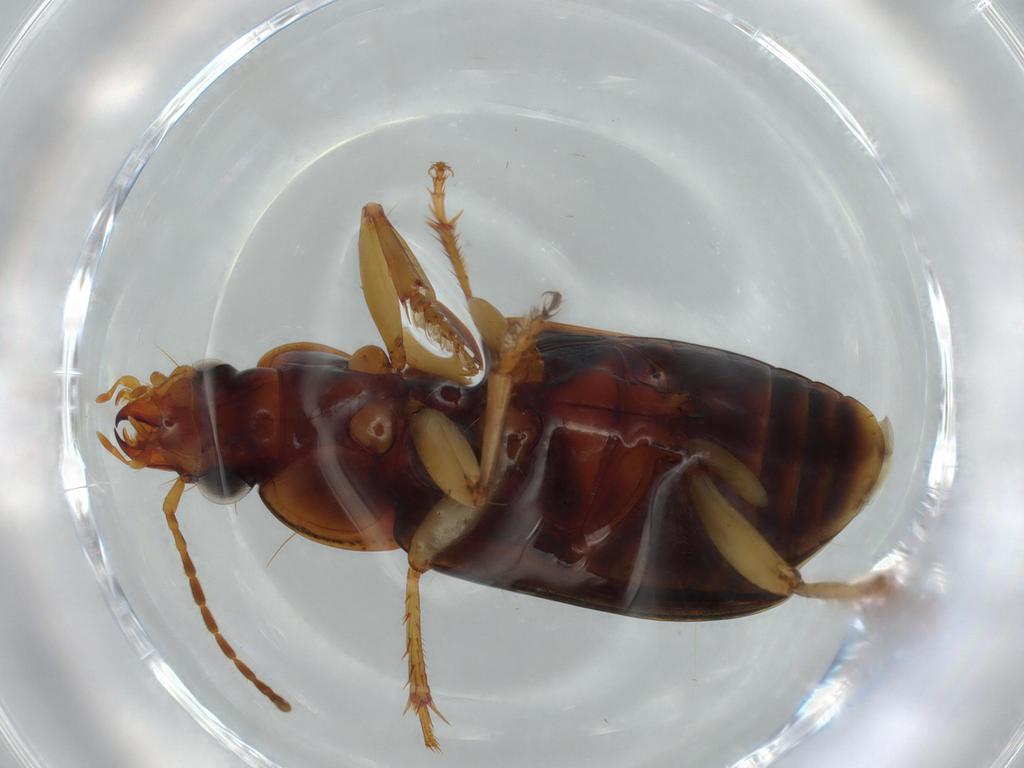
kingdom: Animalia
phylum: Arthropoda
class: Insecta
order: Coleoptera
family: Carabidae
